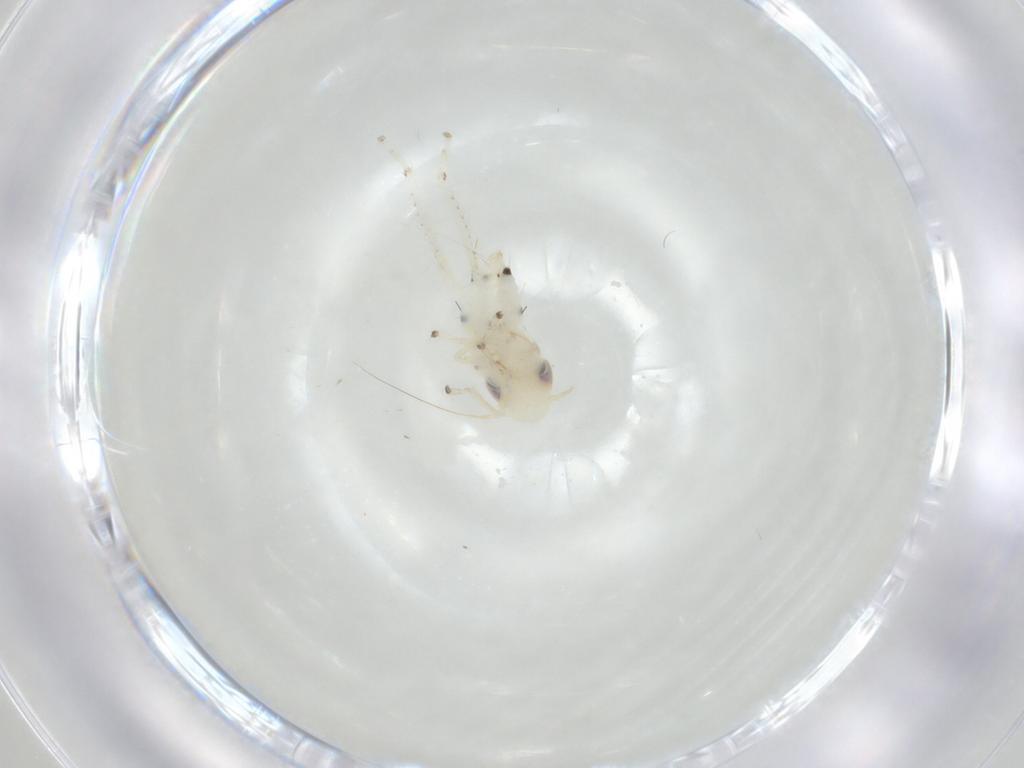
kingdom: Animalia
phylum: Arthropoda
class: Insecta
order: Hemiptera
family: Cicadellidae
